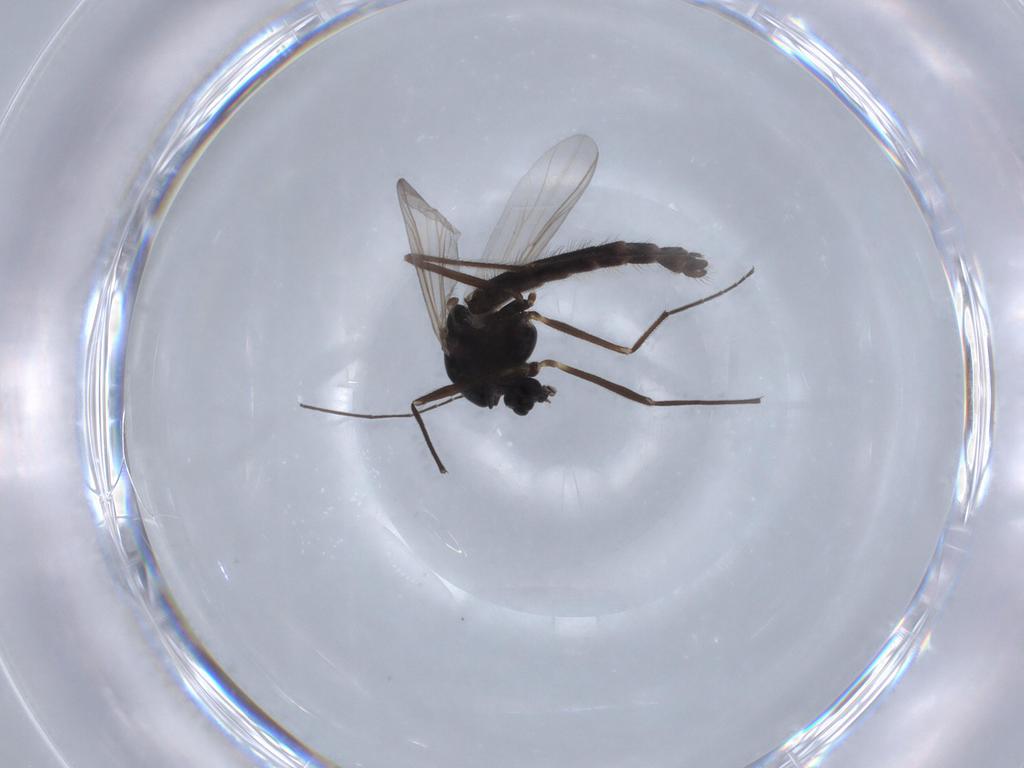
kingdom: Animalia
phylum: Arthropoda
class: Insecta
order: Diptera
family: Chironomidae
